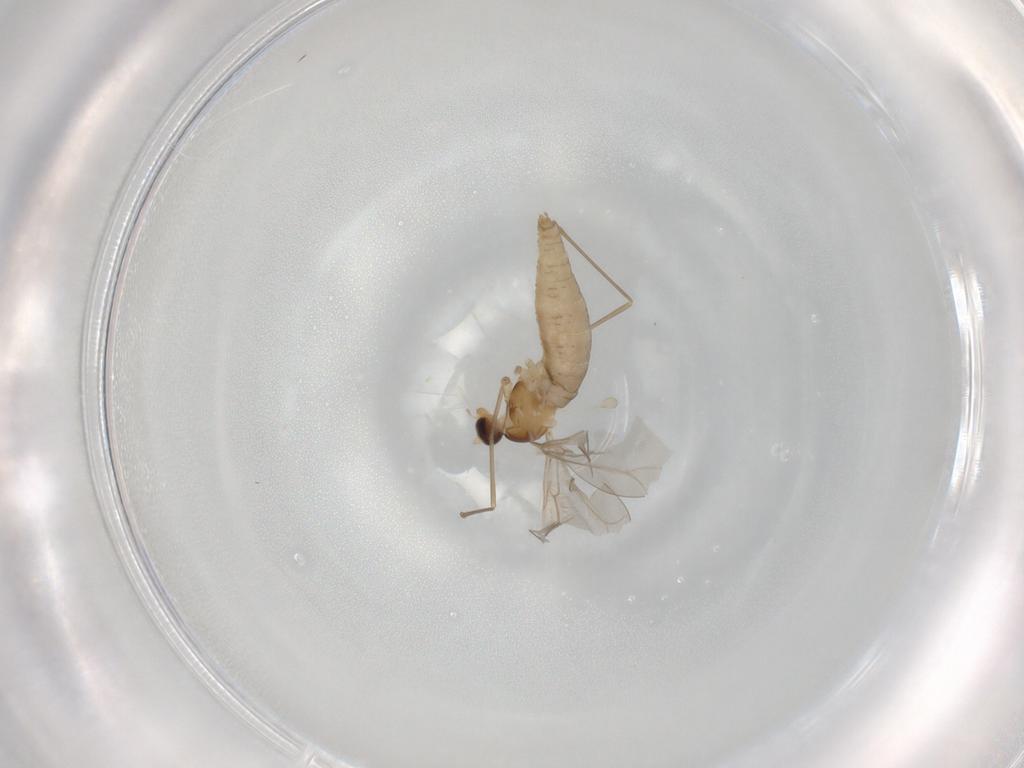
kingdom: Animalia
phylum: Arthropoda
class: Insecta
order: Diptera
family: Cecidomyiidae
